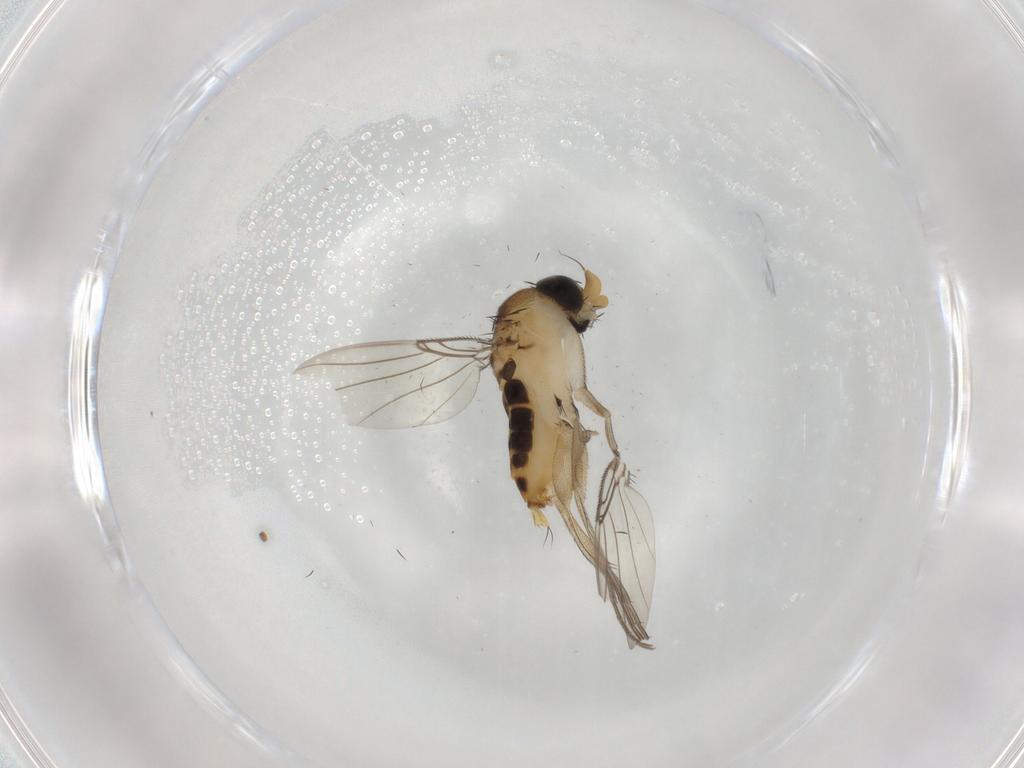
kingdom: Animalia
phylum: Arthropoda
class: Insecta
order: Diptera
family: Phoridae
